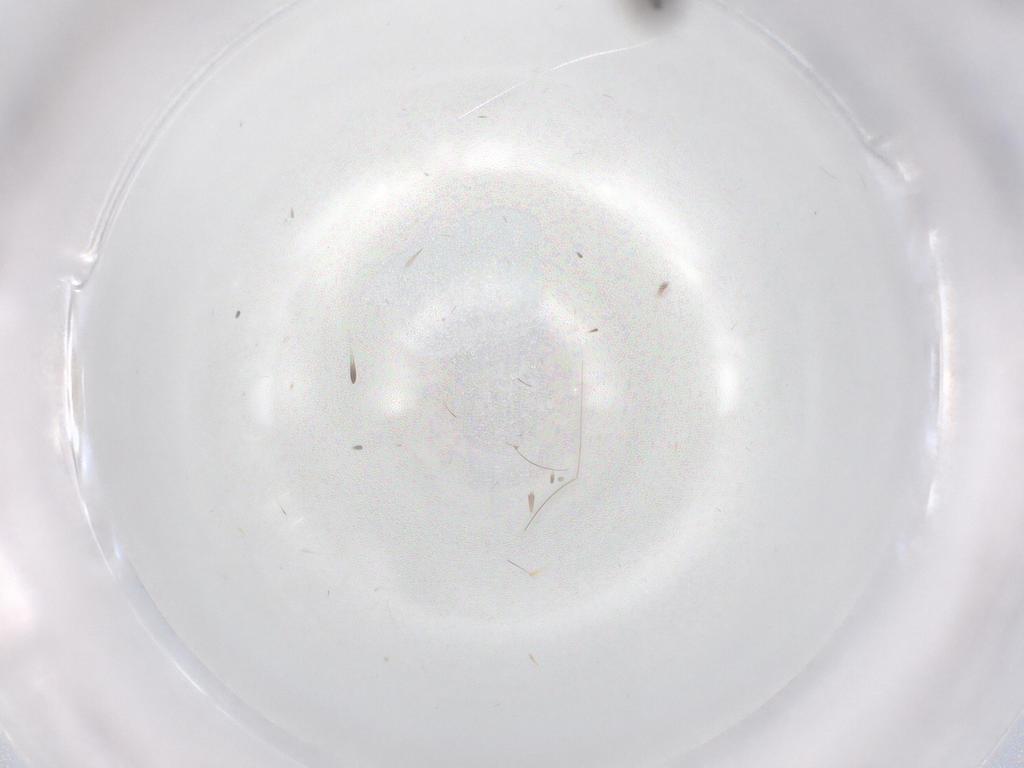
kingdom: Animalia
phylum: Arthropoda
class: Insecta
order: Diptera
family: Sciaridae
